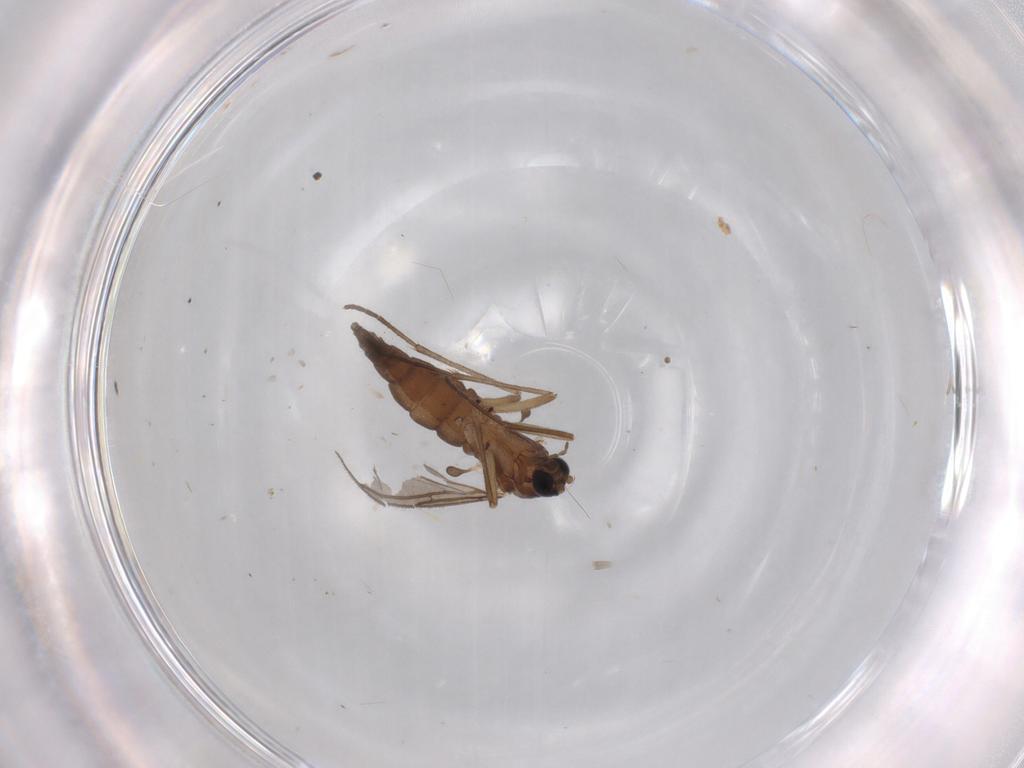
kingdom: Animalia
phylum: Arthropoda
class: Insecta
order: Diptera
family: Sciaridae
